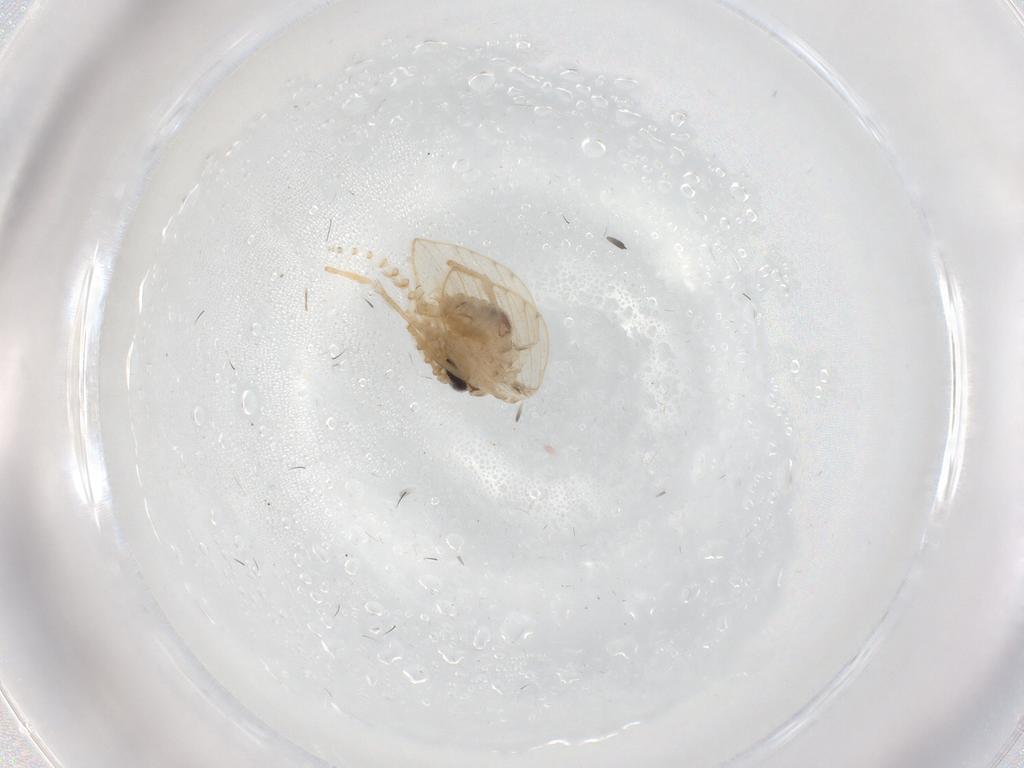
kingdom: Animalia
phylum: Arthropoda
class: Insecta
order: Diptera
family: Psychodidae
